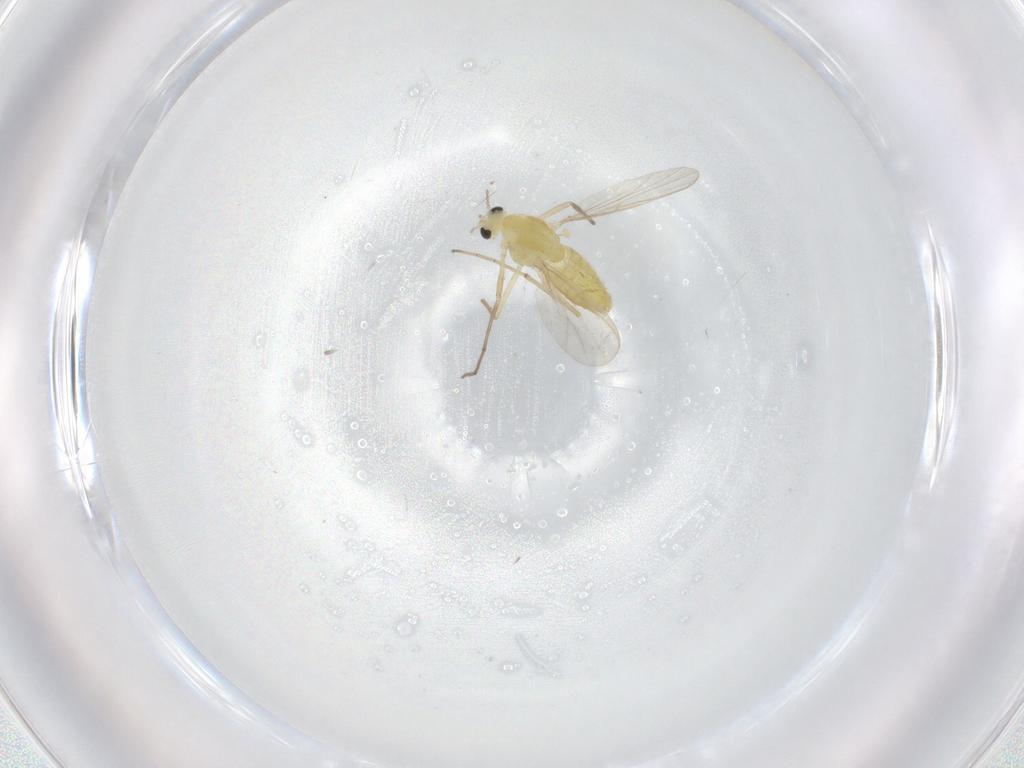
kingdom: Animalia
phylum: Arthropoda
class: Insecta
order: Diptera
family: Chironomidae
